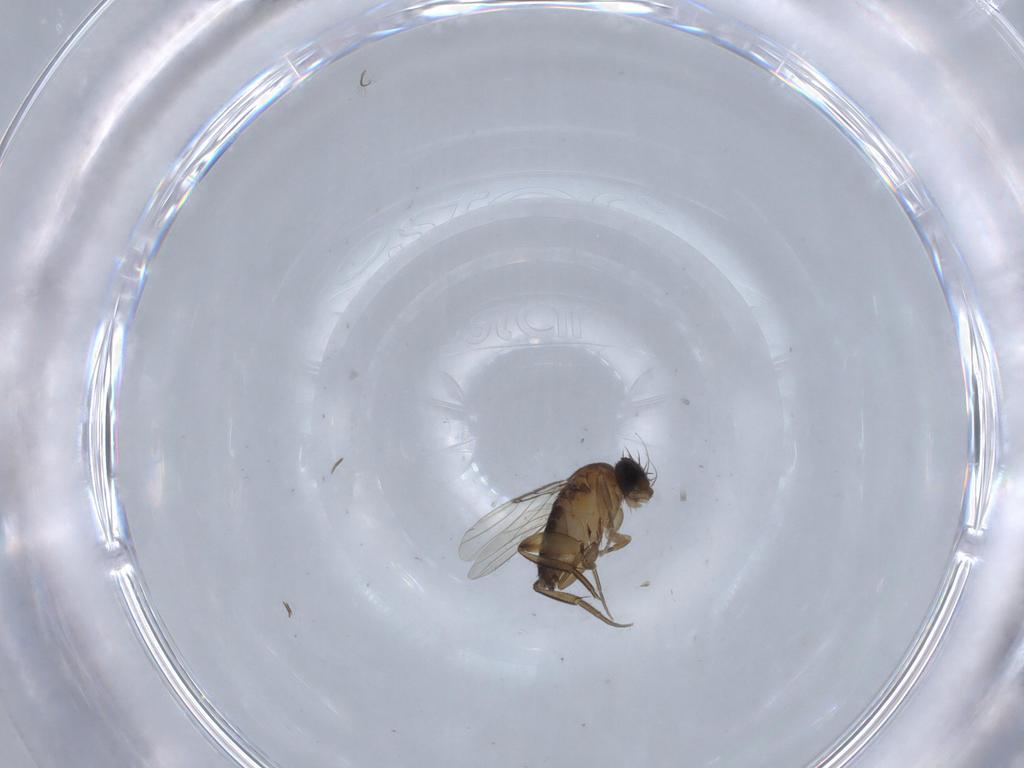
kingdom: Animalia
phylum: Arthropoda
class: Insecta
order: Diptera
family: Phoridae
